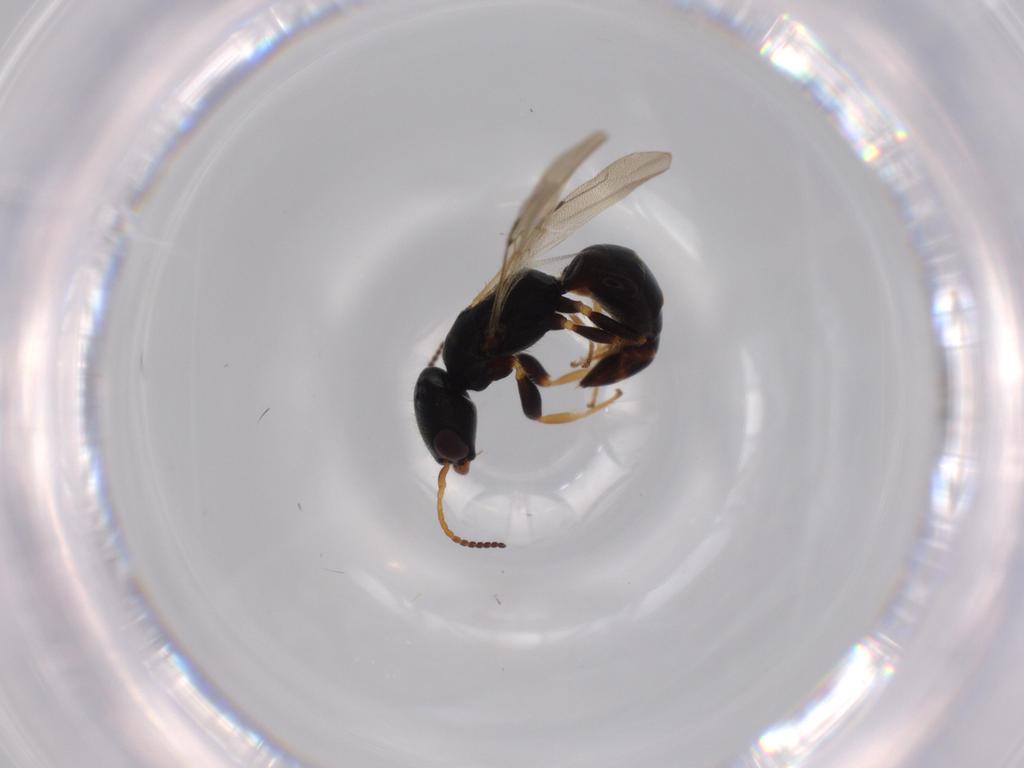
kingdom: Animalia
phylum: Arthropoda
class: Insecta
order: Hymenoptera
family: Bethylidae
